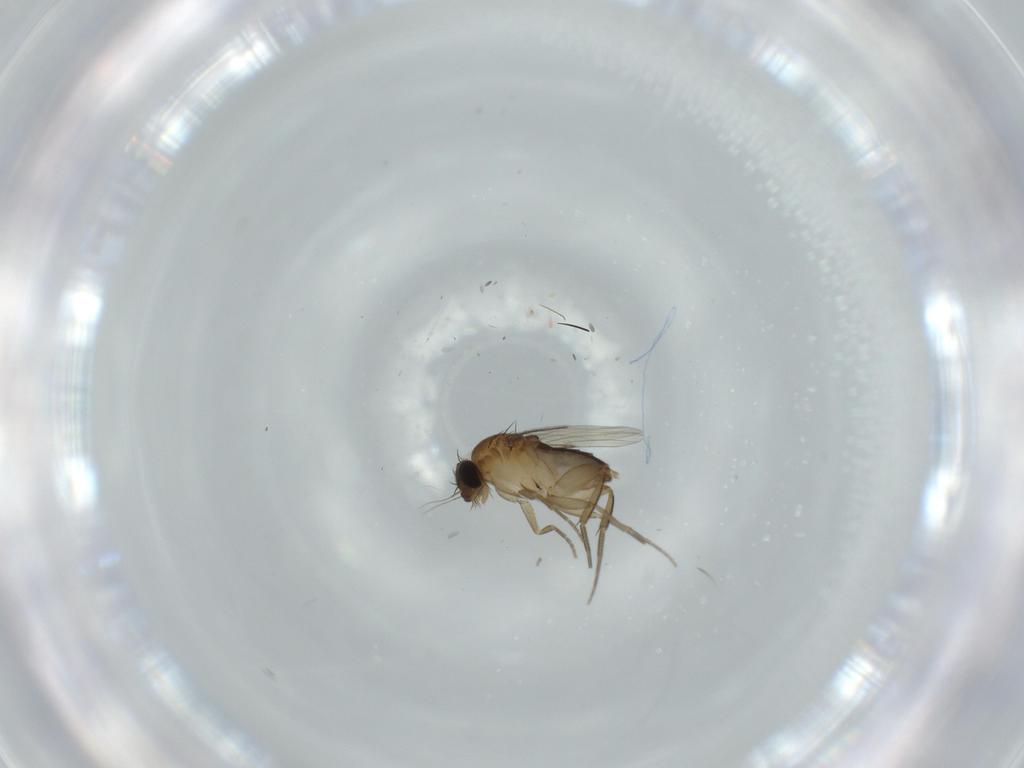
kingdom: Animalia
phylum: Arthropoda
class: Insecta
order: Diptera
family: Phoridae
